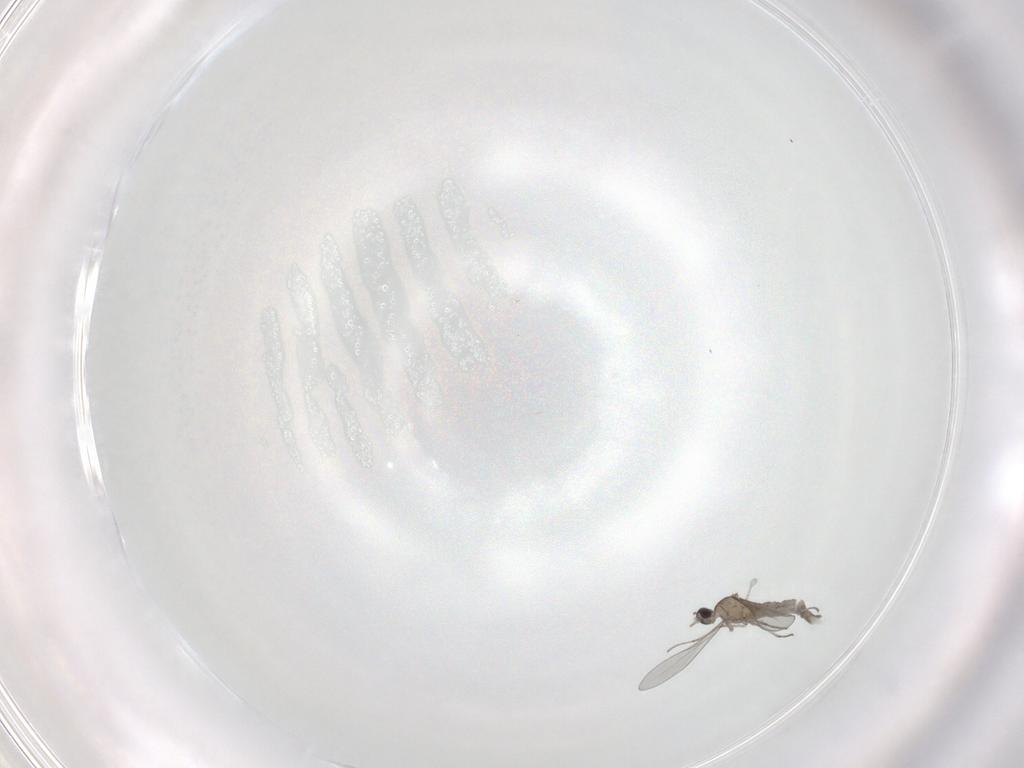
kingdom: Animalia
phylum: Arthropoda
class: Insecta
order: Diptera
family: Cecidomyiidae
